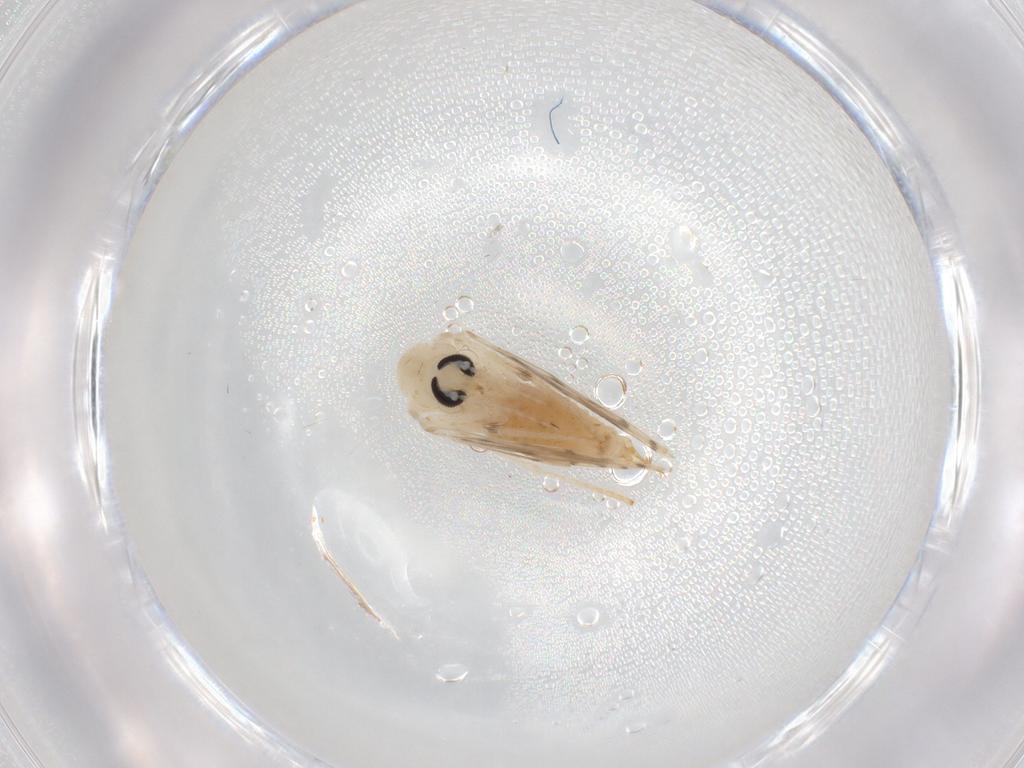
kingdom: Animalia
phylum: Arthropoda
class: Insecta
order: Diptera
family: Psychodidae
